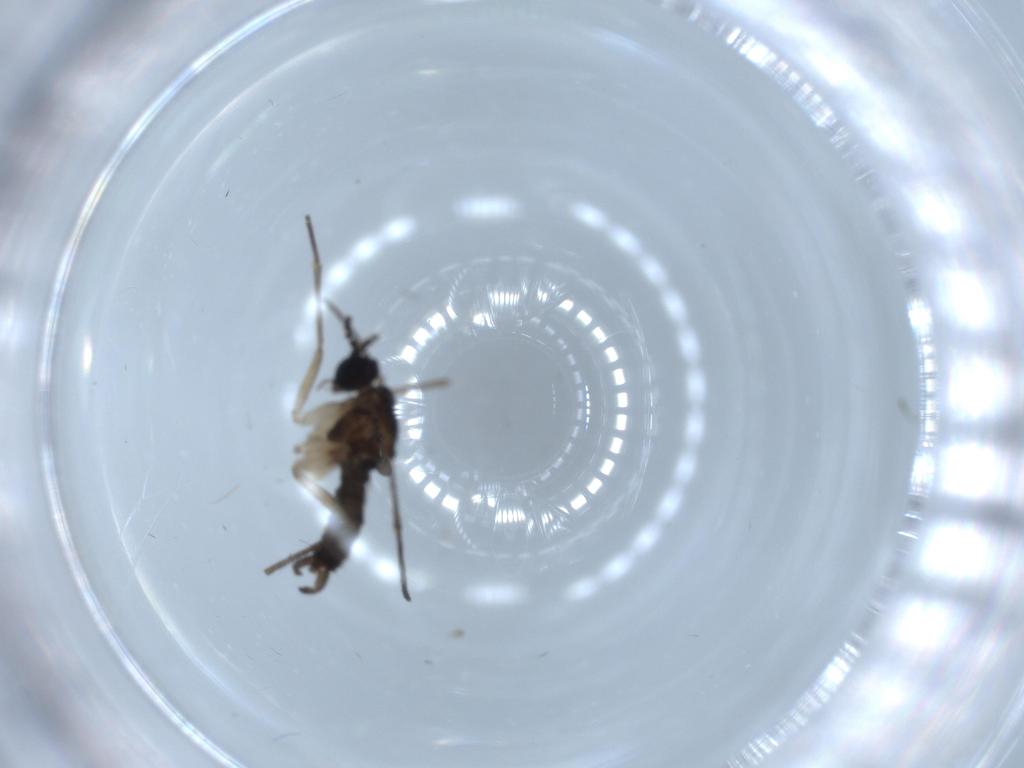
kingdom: Animalia
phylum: Arthropoda
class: Insecta
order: Diptera
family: Sciaridae
